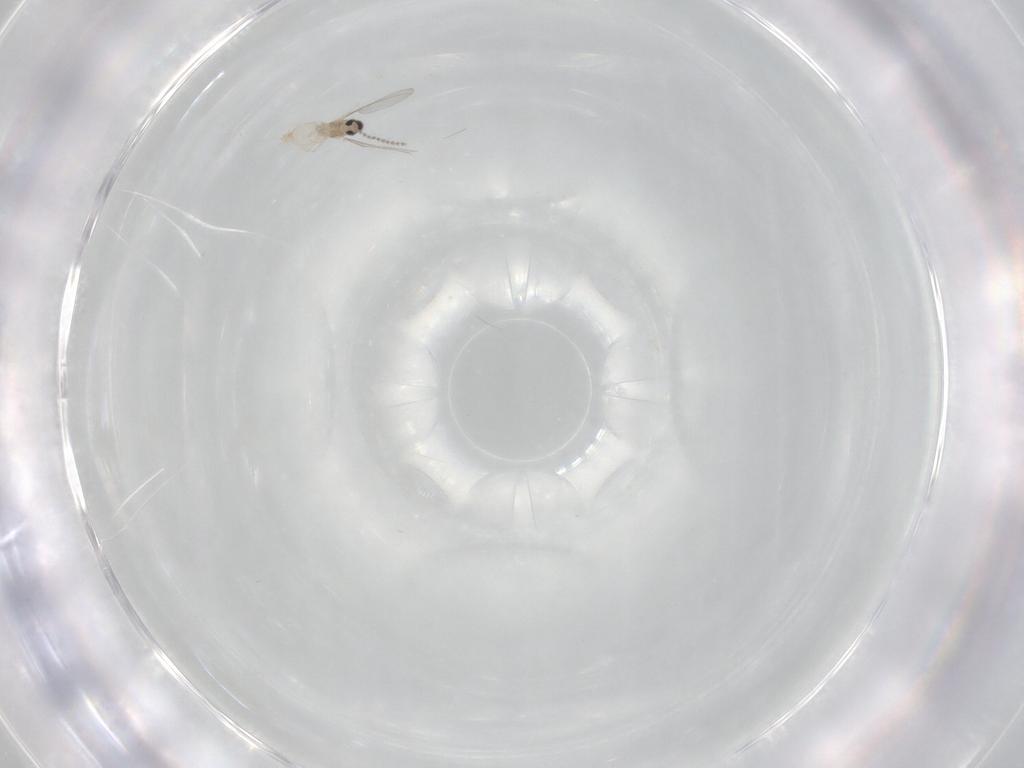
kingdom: Animalia
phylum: Arthropoda
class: Insecta
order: Diptera
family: Cecidomyiidae
